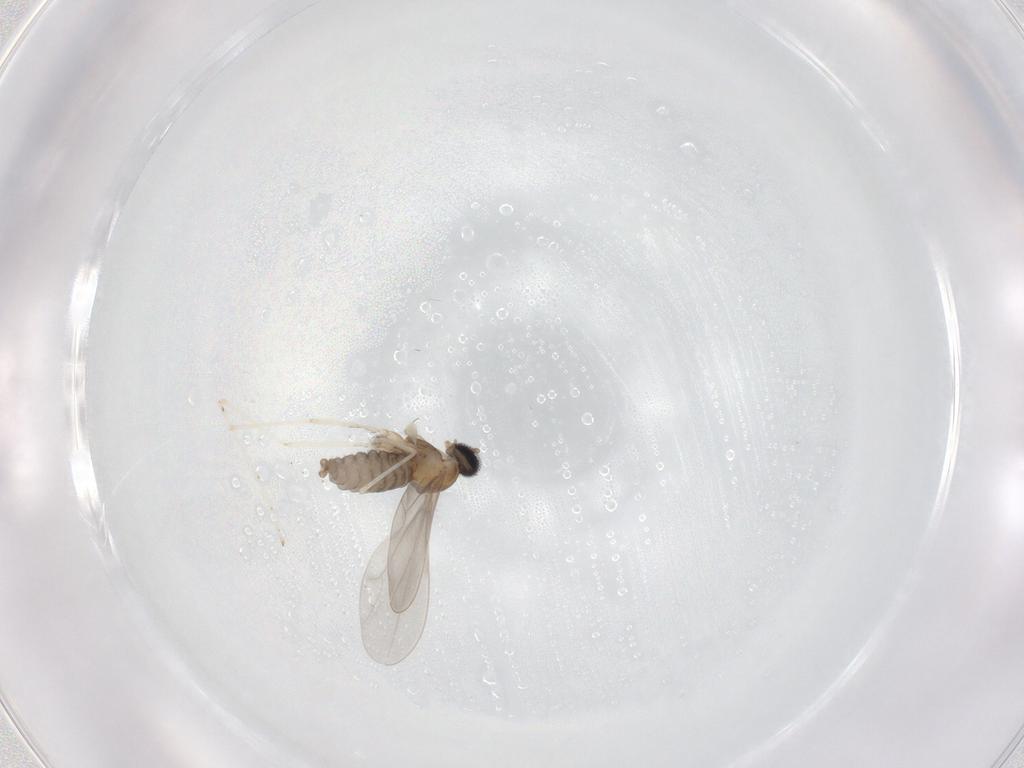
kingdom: Animalia
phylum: Arthropoda
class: Insecta
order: Diptera
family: Cecidomyiidae
